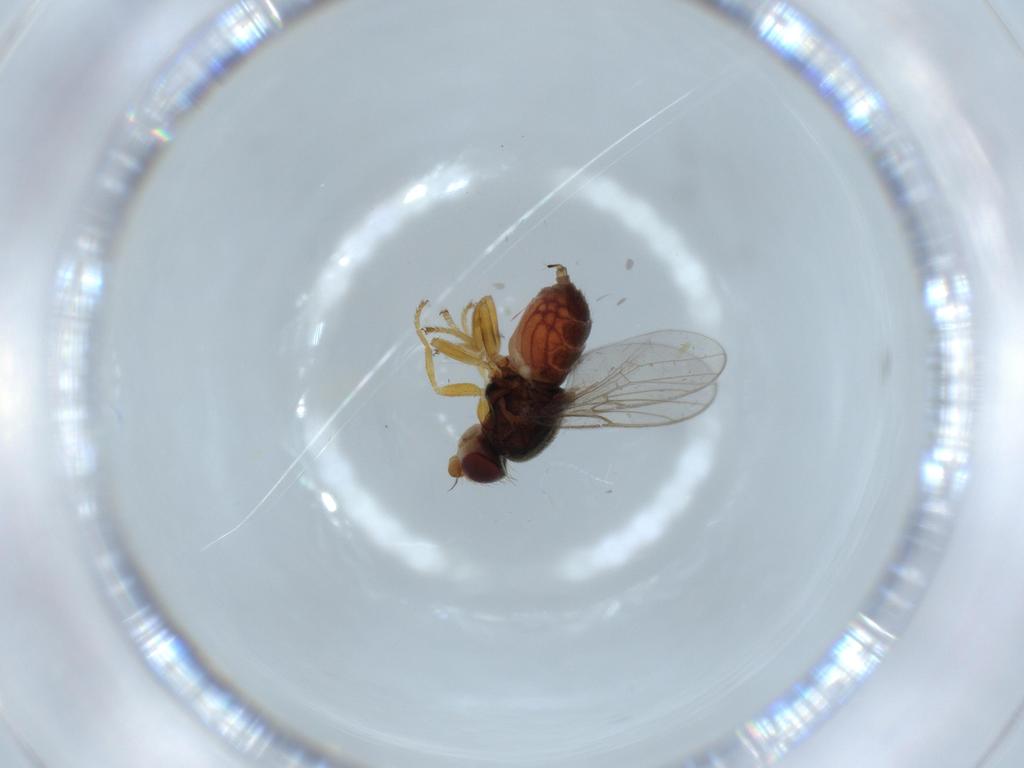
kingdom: Animalia
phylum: Arthropoda
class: Insecta
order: Diptera
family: Chloropidae
